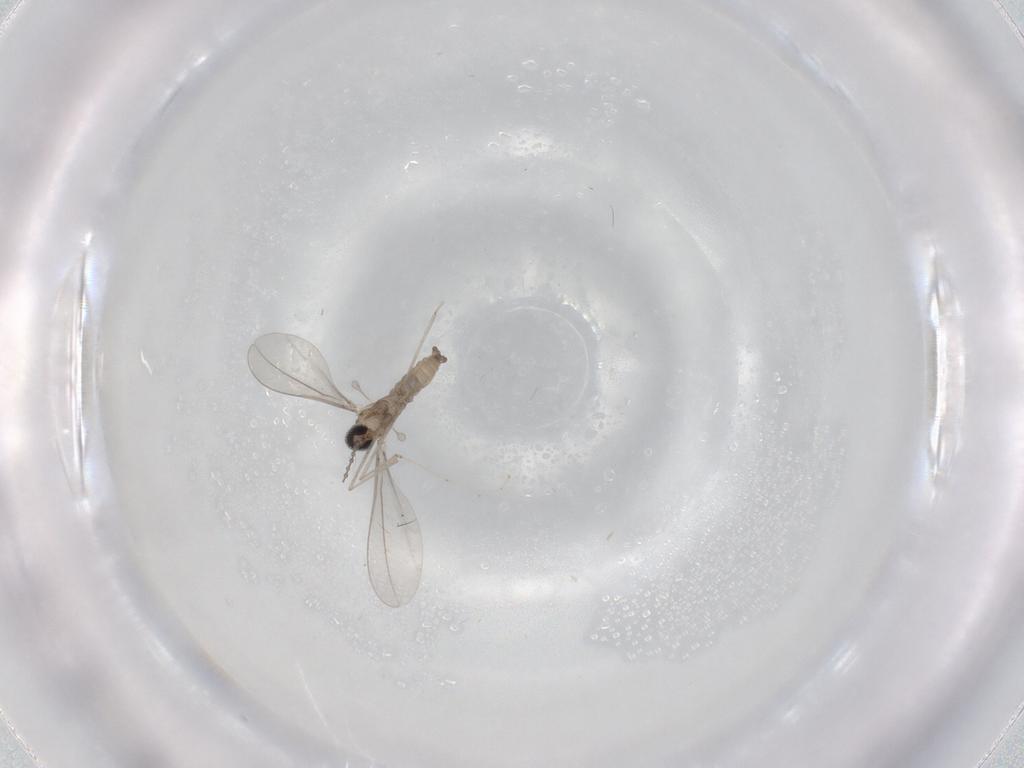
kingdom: Animalia
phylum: Arthropoda
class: Insecta
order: Diptera
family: Cecidomyiidae
